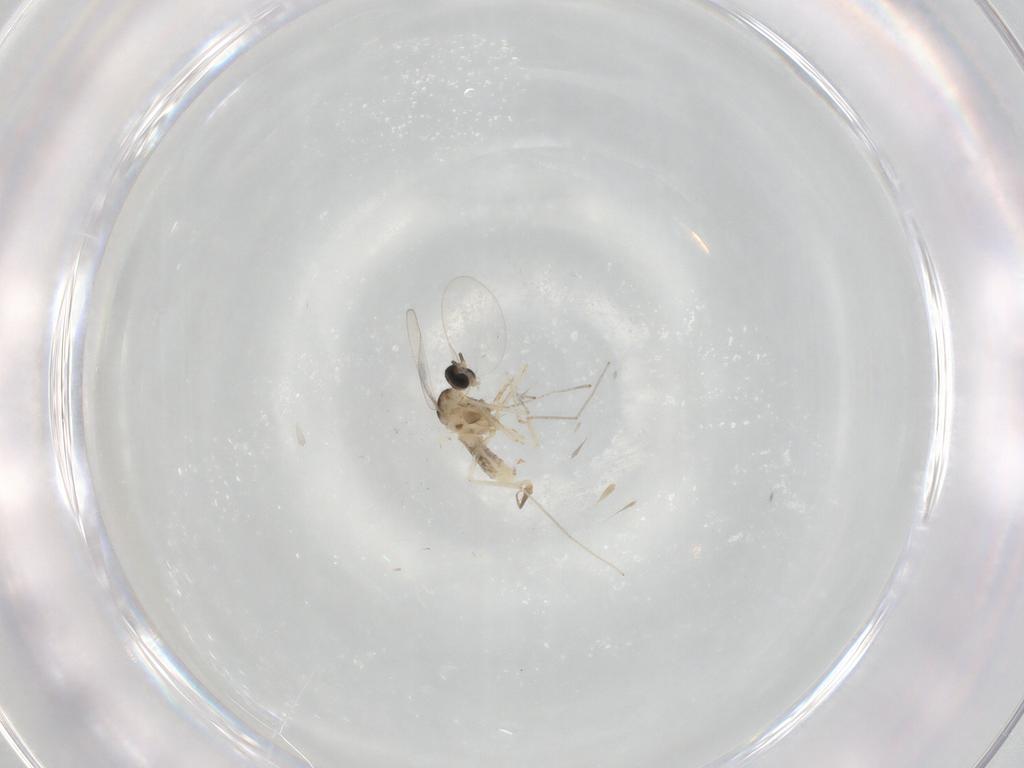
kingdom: Animalia
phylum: Arthropoda
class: Insecta
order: Diptera
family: Cecidomyiidae
